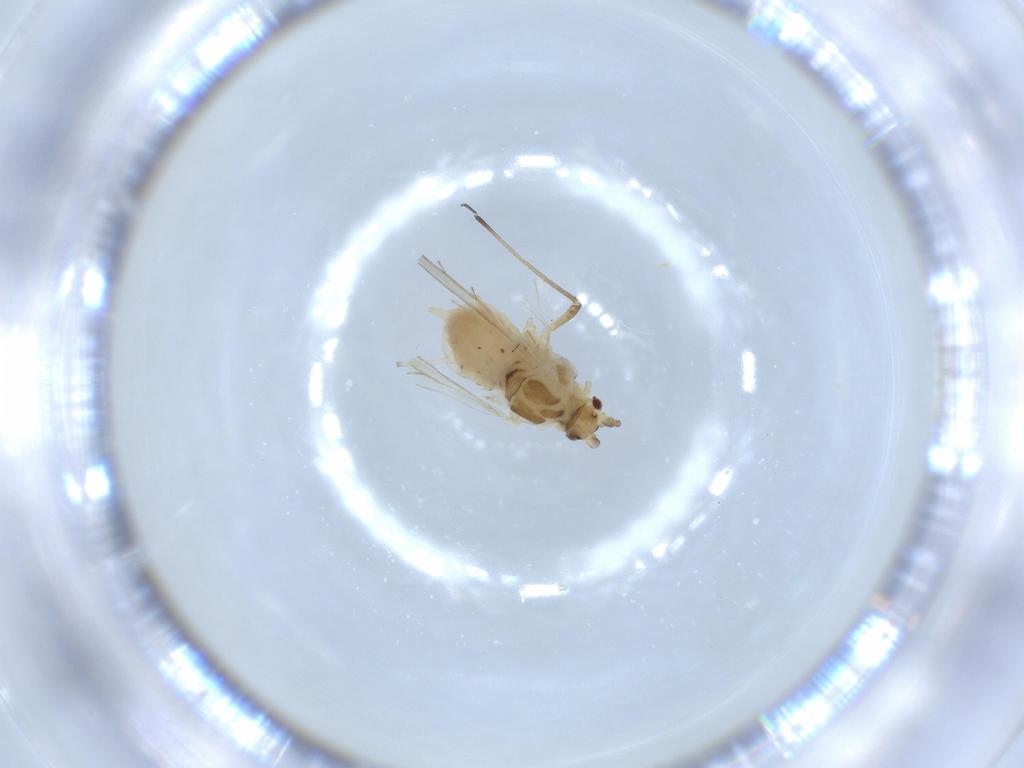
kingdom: Animalia
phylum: Arthropoda
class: Insecta
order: Hemiptera
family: Aphididae
